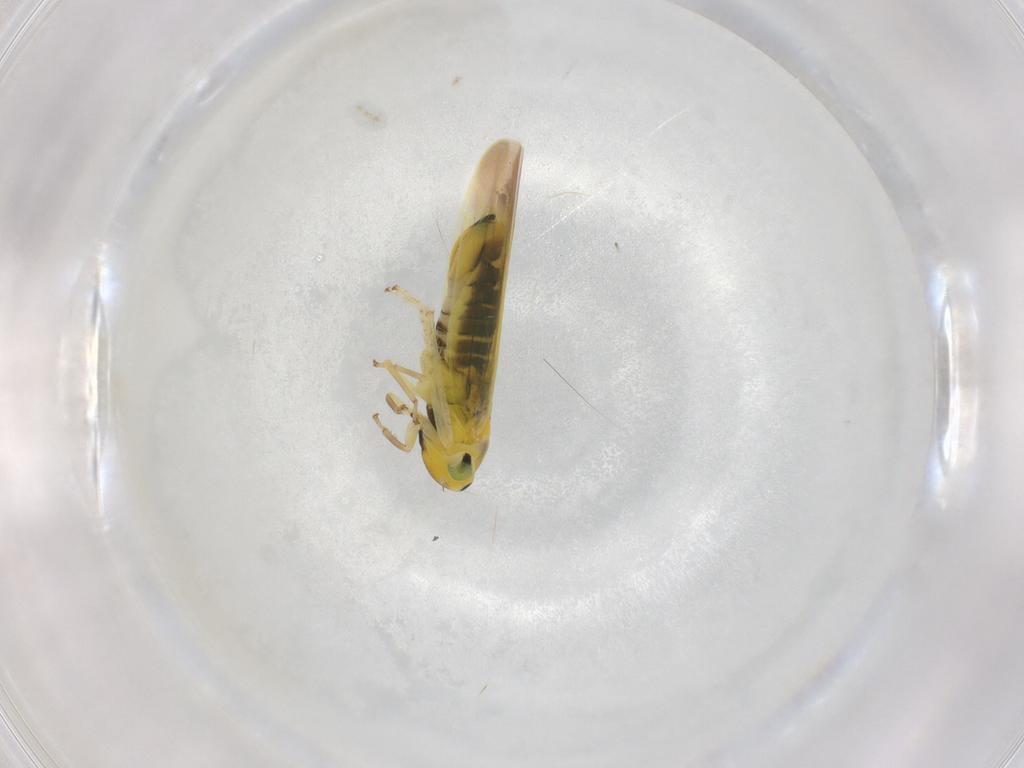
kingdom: Animalia
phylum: Arthropoda
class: Insecta
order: Hemiptera
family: Cicadellidae
